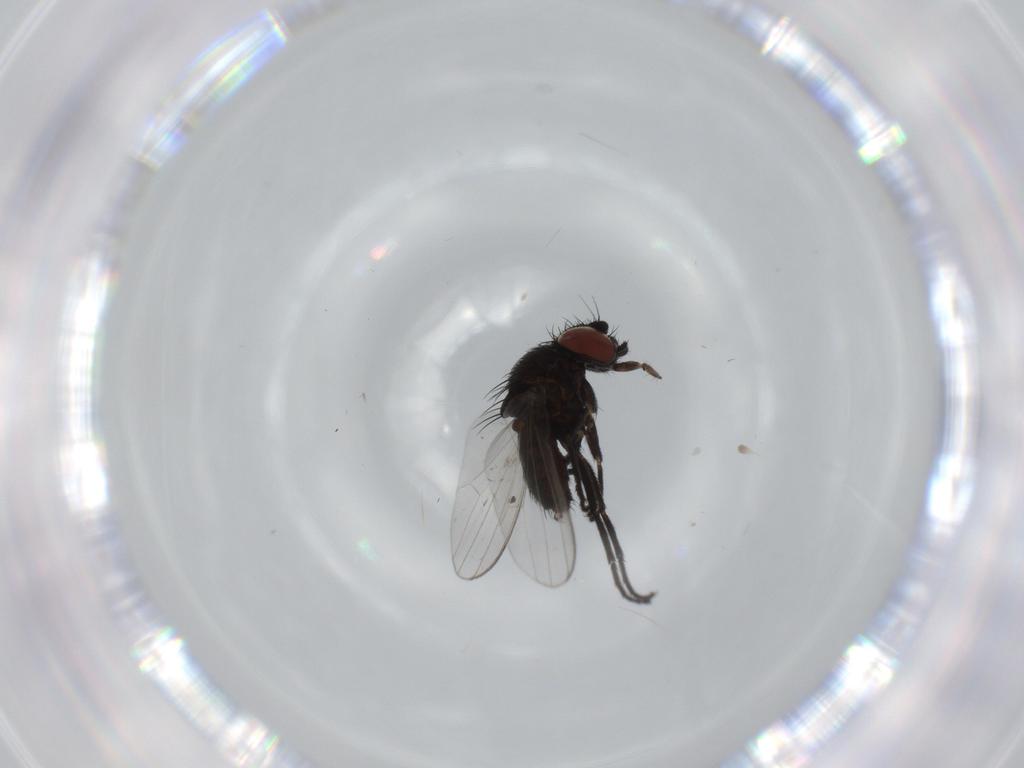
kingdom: Animalia
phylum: Arthropoda
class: Insecta
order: Diptera
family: Milichiidae
